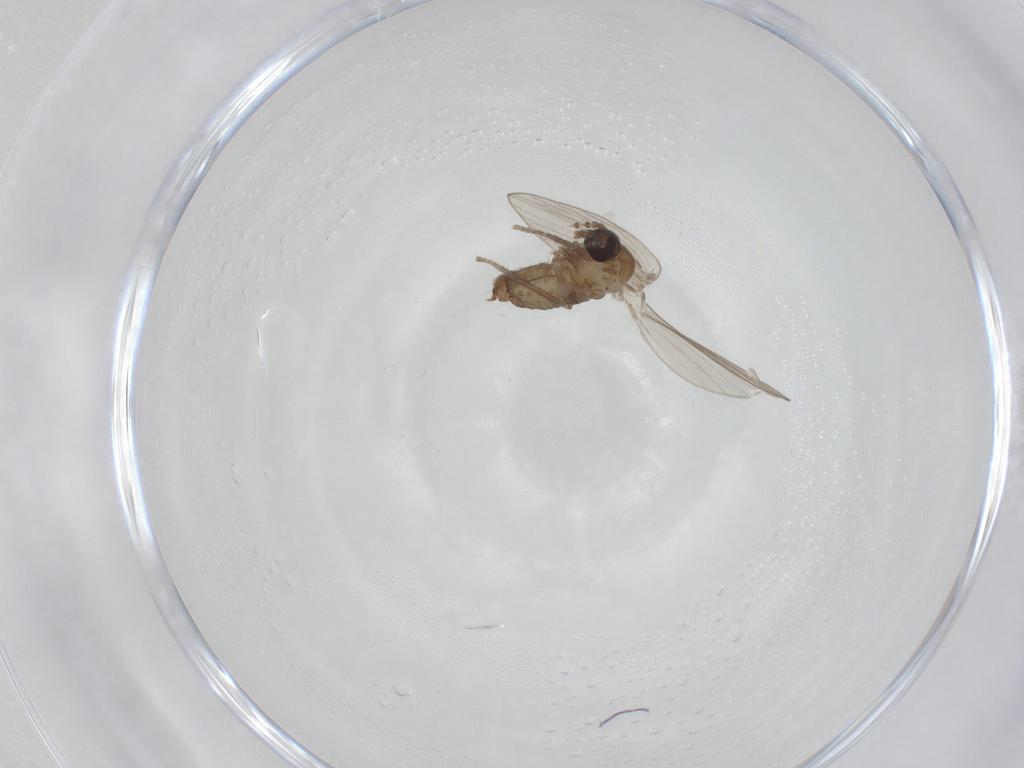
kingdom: Animalia
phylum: Arthropoda
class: Insecta
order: Diptera
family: Psychodidae
